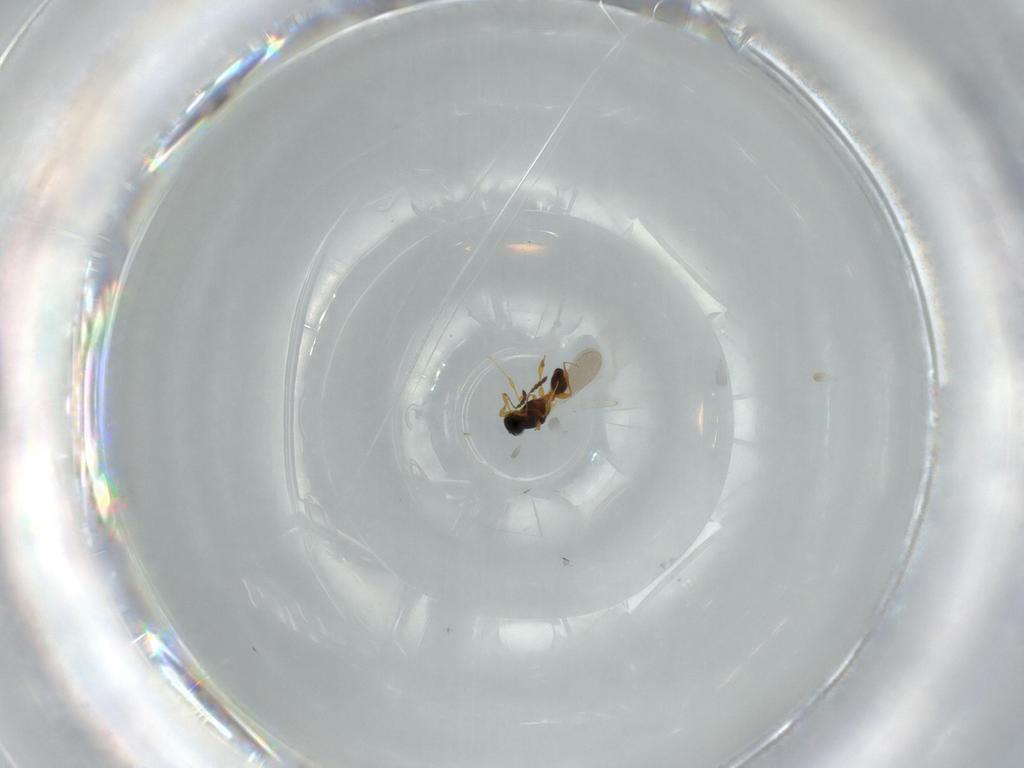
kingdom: Animalia
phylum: Arthropoda
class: Insecta
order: Hymenoptera
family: Platygastridae
